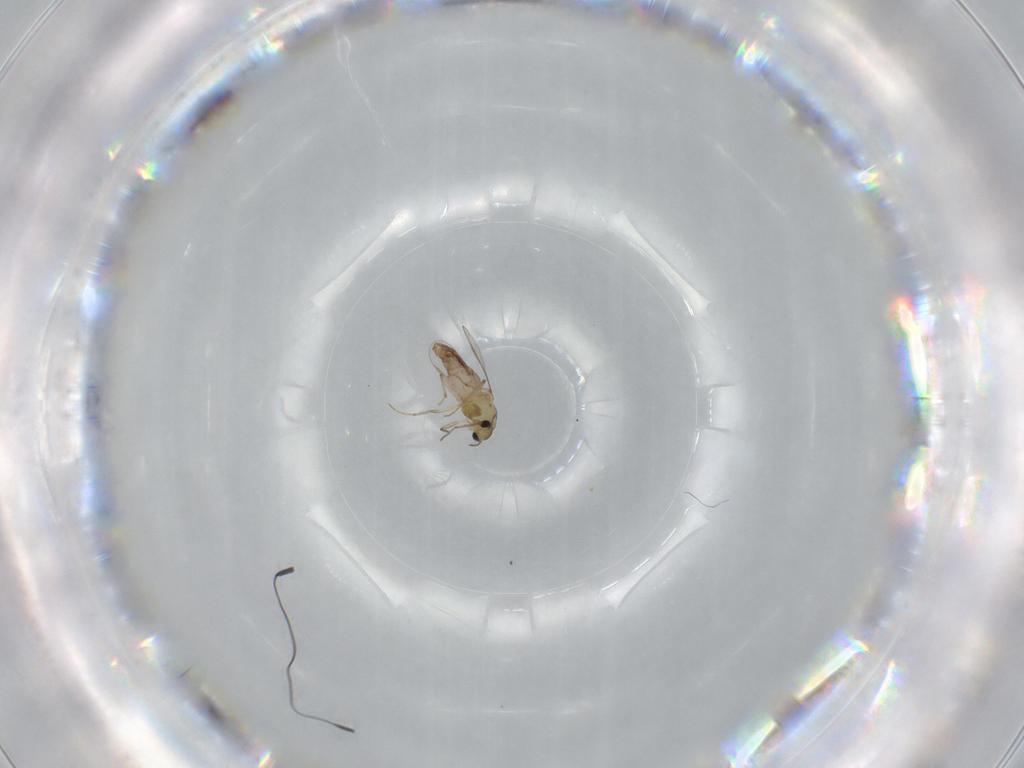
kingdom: Animalia
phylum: Arthropoda
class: Insecta
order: Diptera
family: Chironomidae
